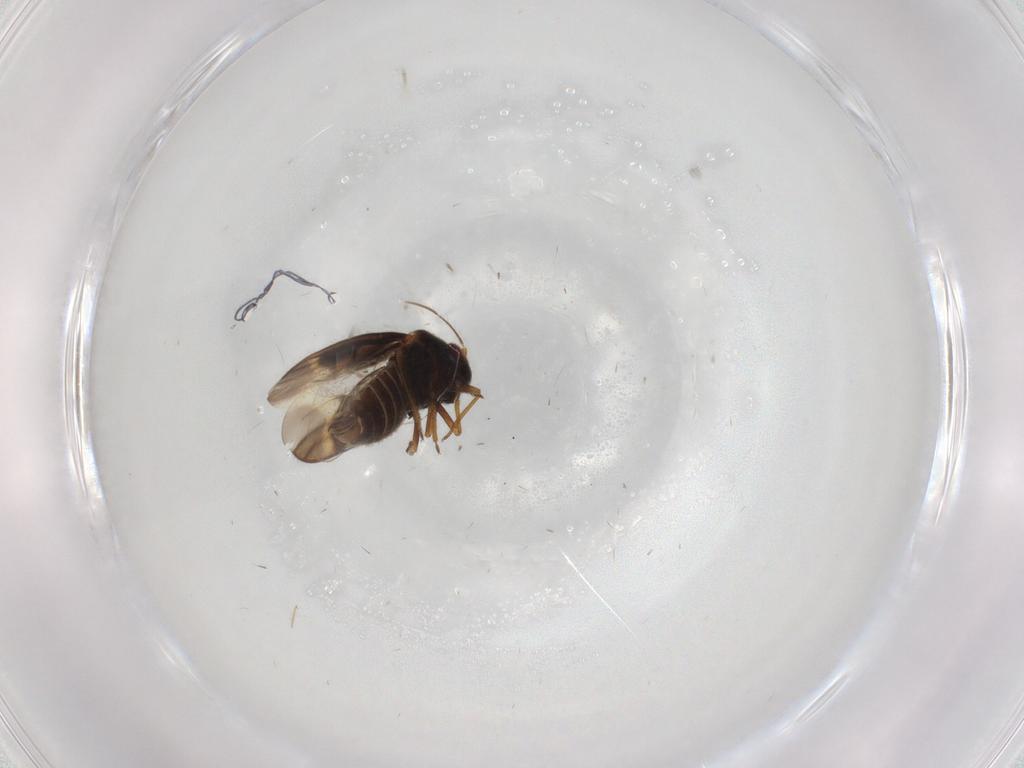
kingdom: Animalia
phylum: Arthropoda
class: Insecta
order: Hemiptera
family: Schizopteridae
